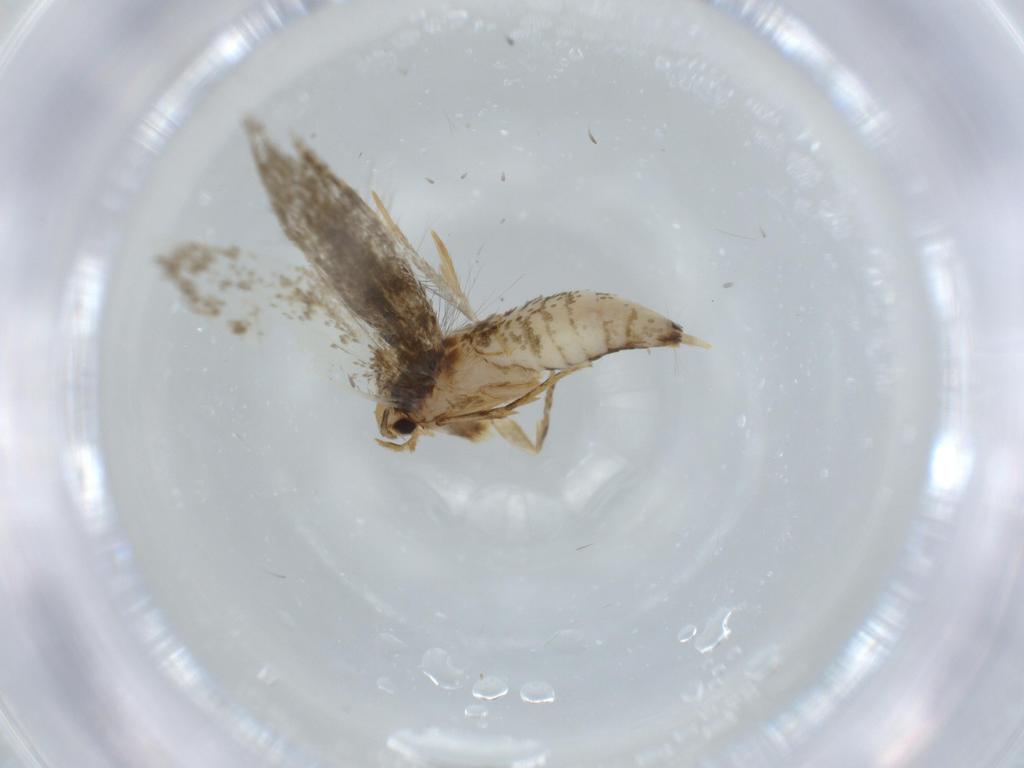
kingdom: Animalia
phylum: Arthropoda
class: Insecta
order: Lepidoptera
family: Tineidae
